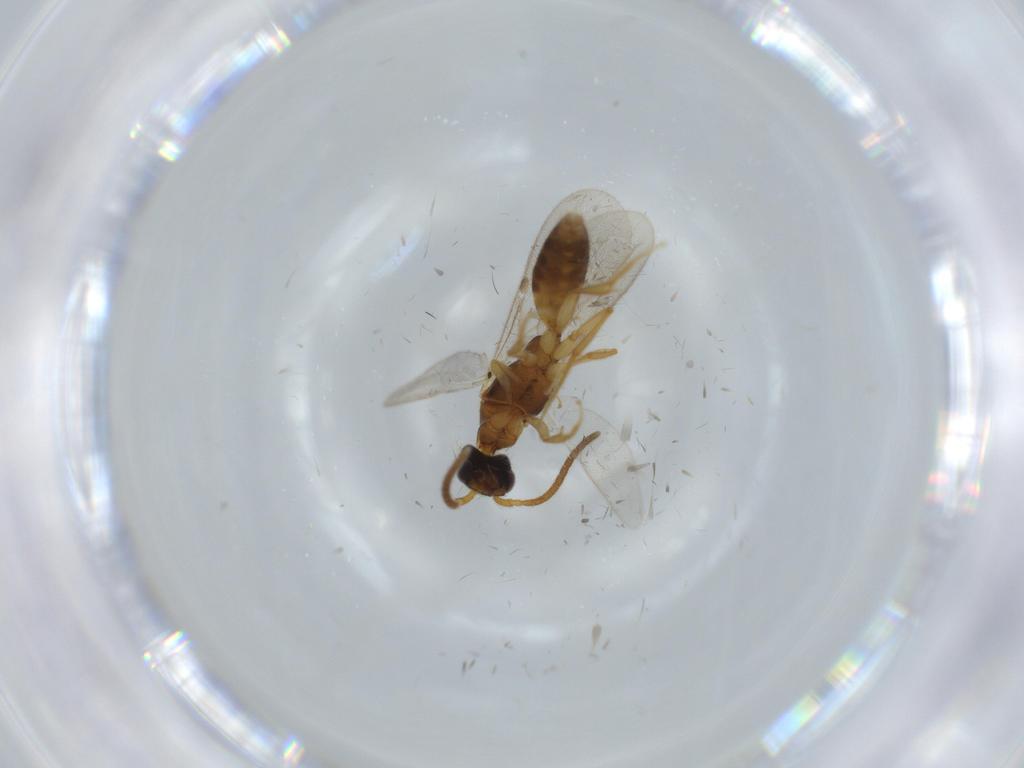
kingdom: Animalia
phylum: Arthropoda
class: Insecta
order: Hymenoptera
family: Bethylidae
